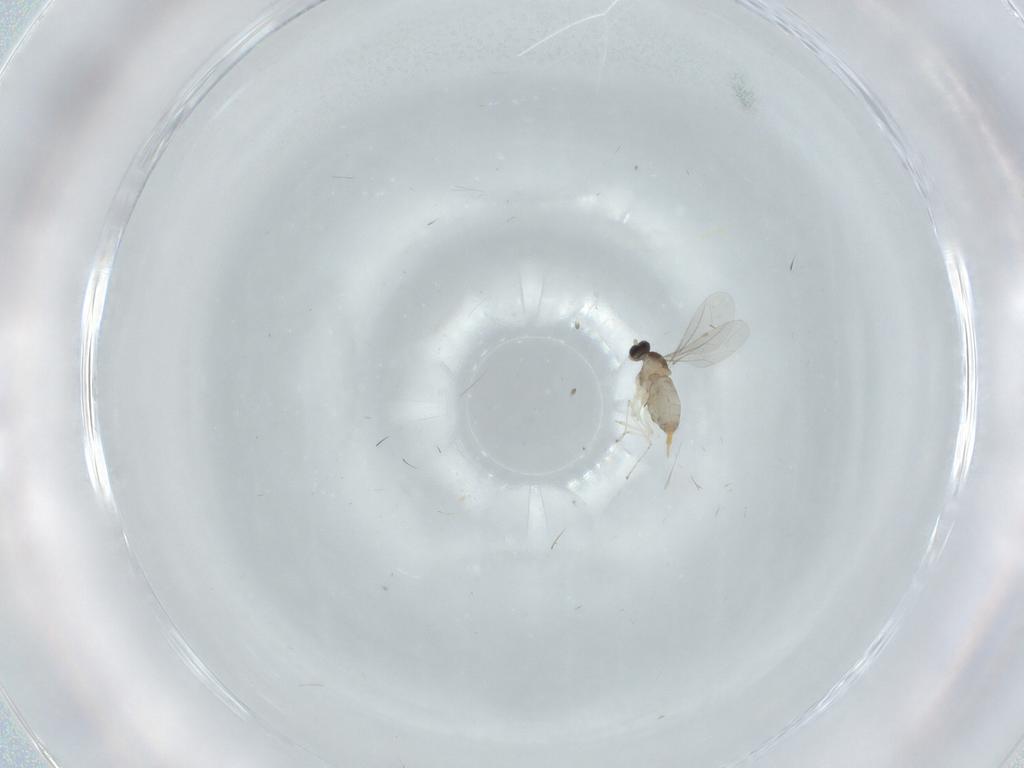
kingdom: Animalia
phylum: Arthropoda
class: Insecta
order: Diptera
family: Cecidomyiidae
